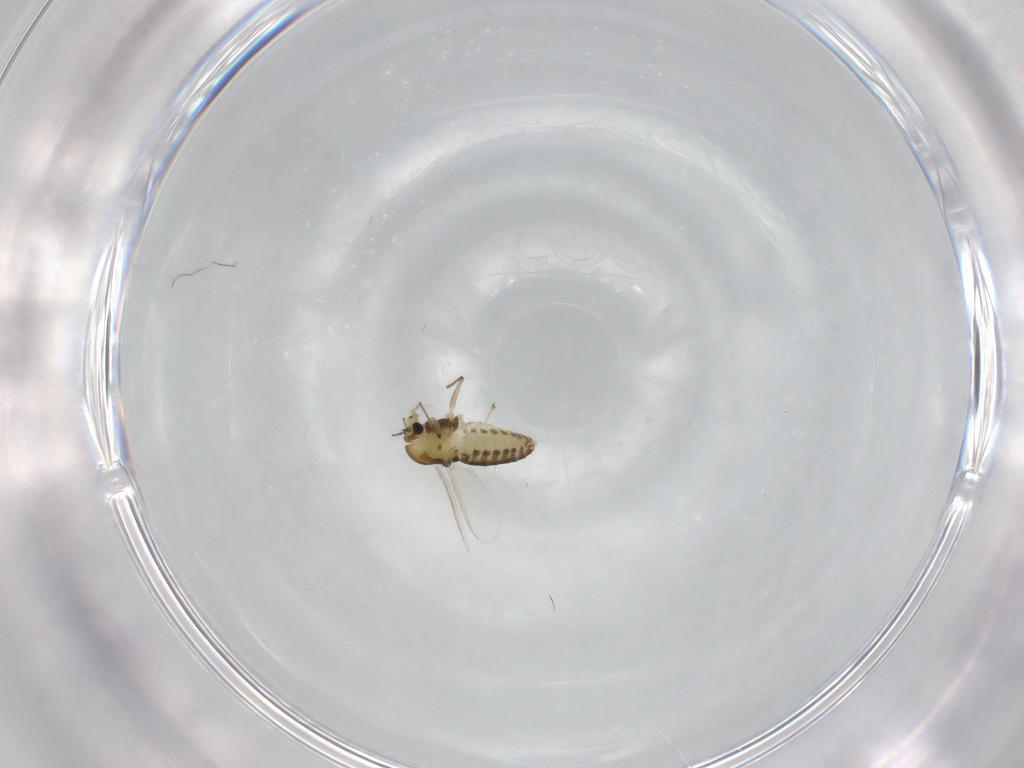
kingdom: Animalia
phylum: Arthropoda
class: Insecta
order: Diptera
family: Chironomidae
